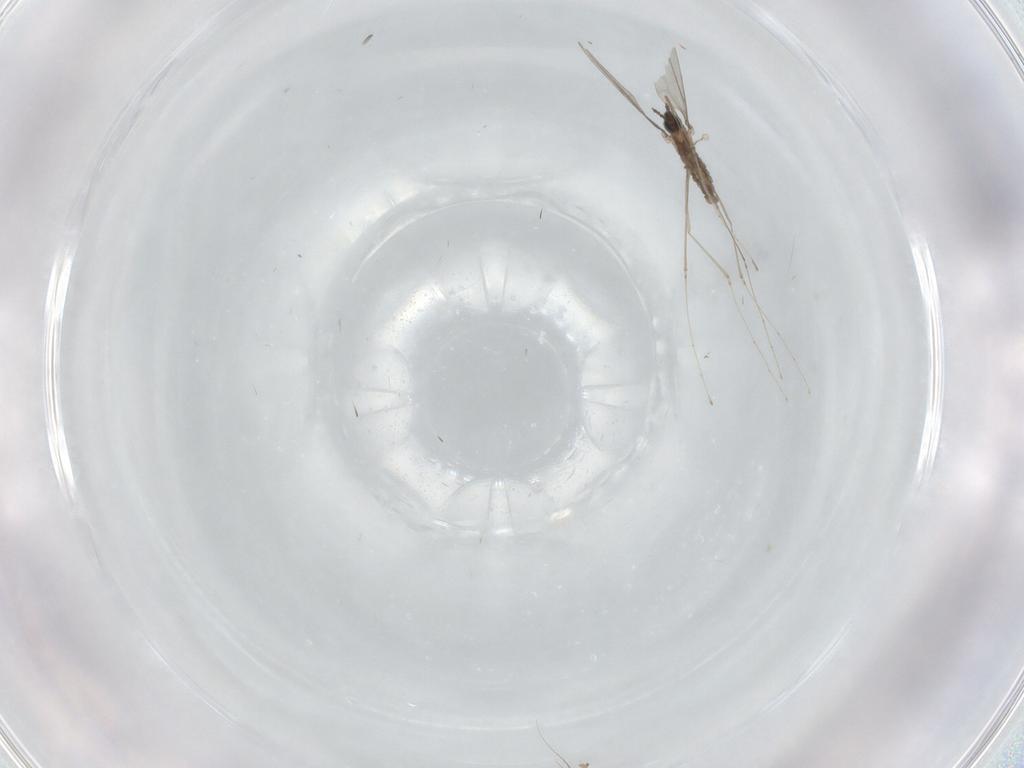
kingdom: Animalia
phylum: Arthropoda
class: Insecta
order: Diptera
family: Cecidomyiidae
